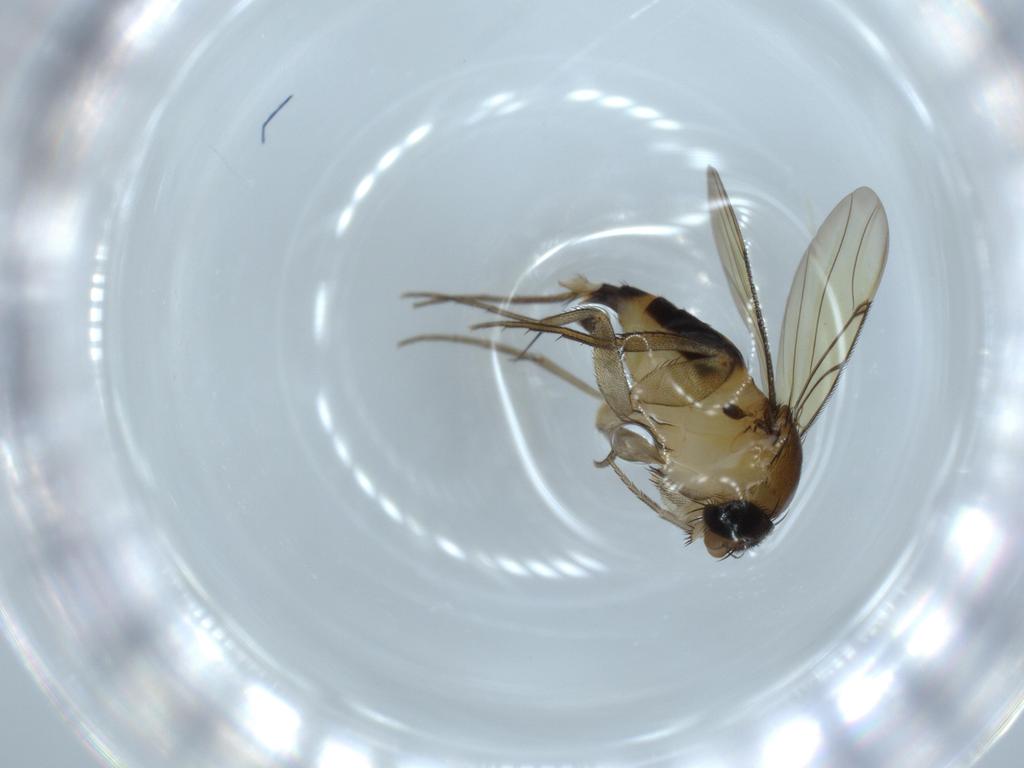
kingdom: Animalia
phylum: Arthropoda
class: Insecta
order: Diptera
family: Phoridae
